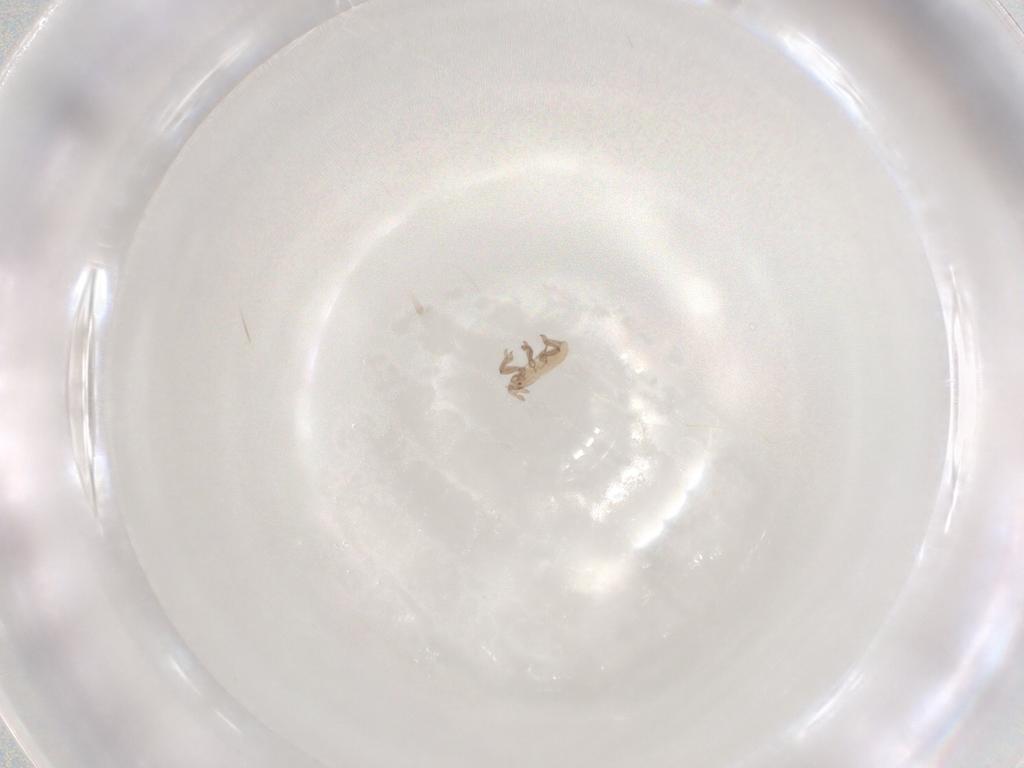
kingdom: Animalia
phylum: Arthropoda
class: Insecta
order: Hemiptera
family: Aphididae
